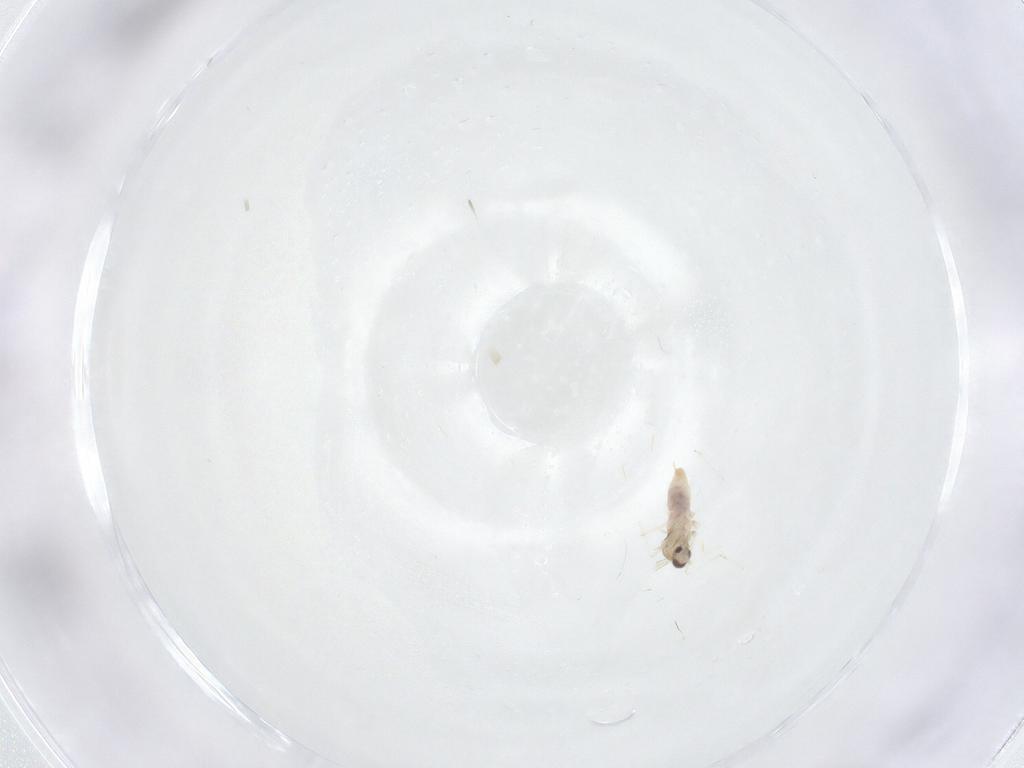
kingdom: Animalia
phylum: Arthropoda
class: Insecta
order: Diptera
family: Cecidomyiidae
